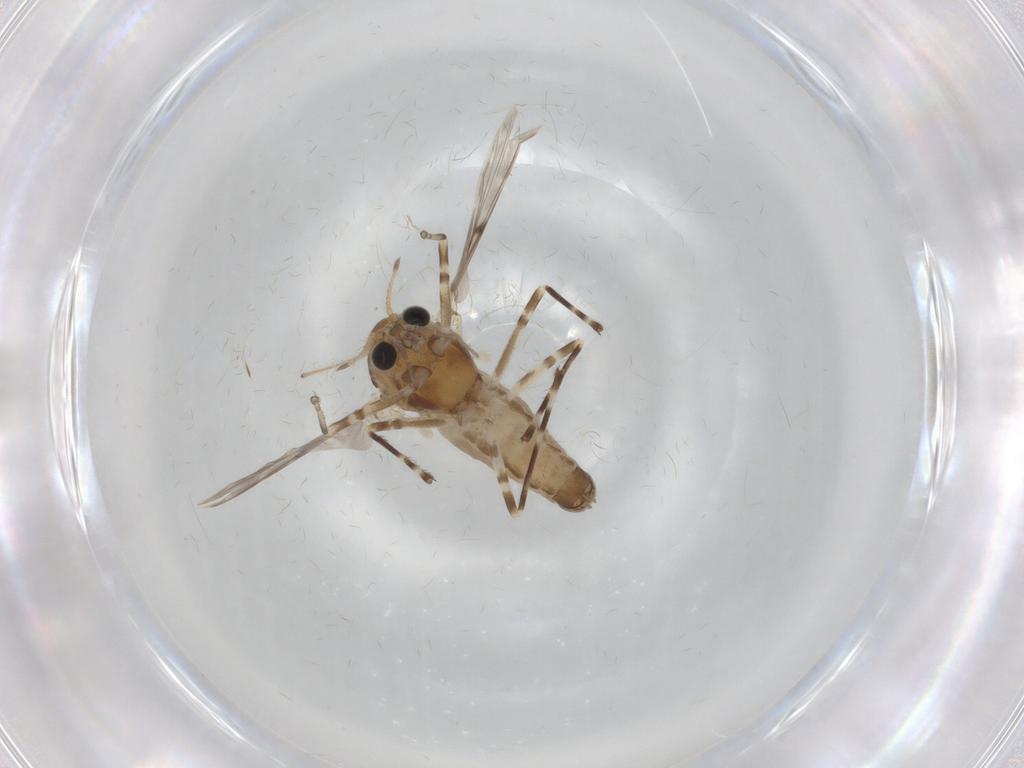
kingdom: Animalia
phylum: Arthropoda
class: Insecta
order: Diptera
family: Chironomidae
